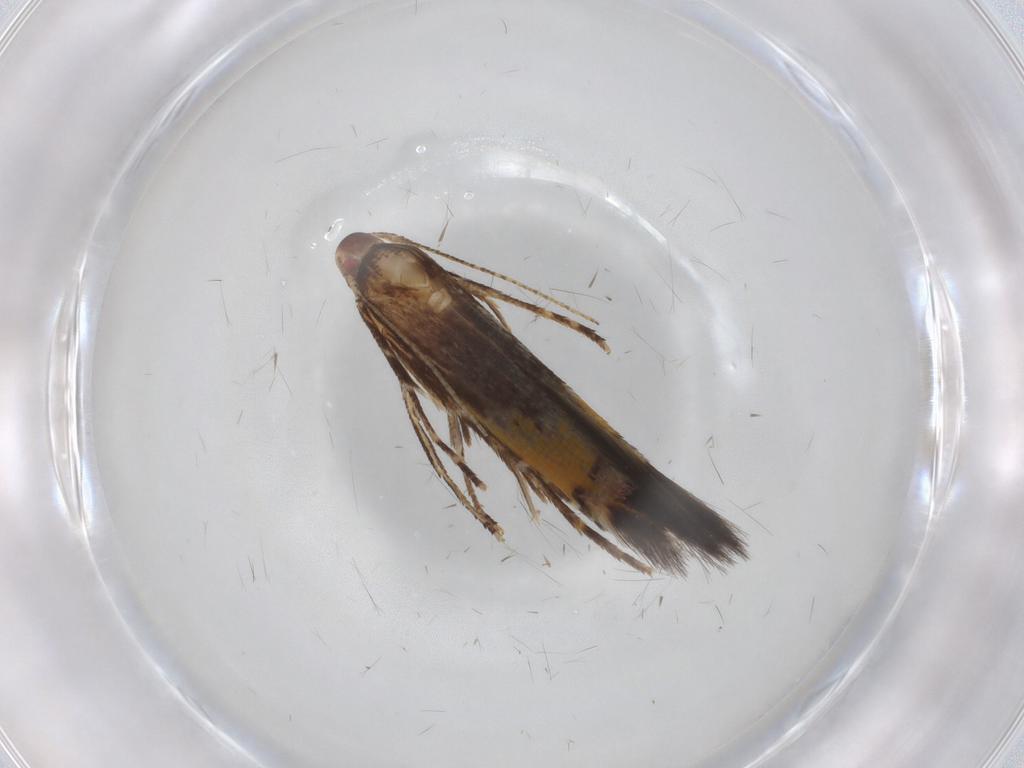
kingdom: Animalia
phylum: Arthropoda
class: Insecta
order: Lepidoptera
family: Cosmopterigidae
